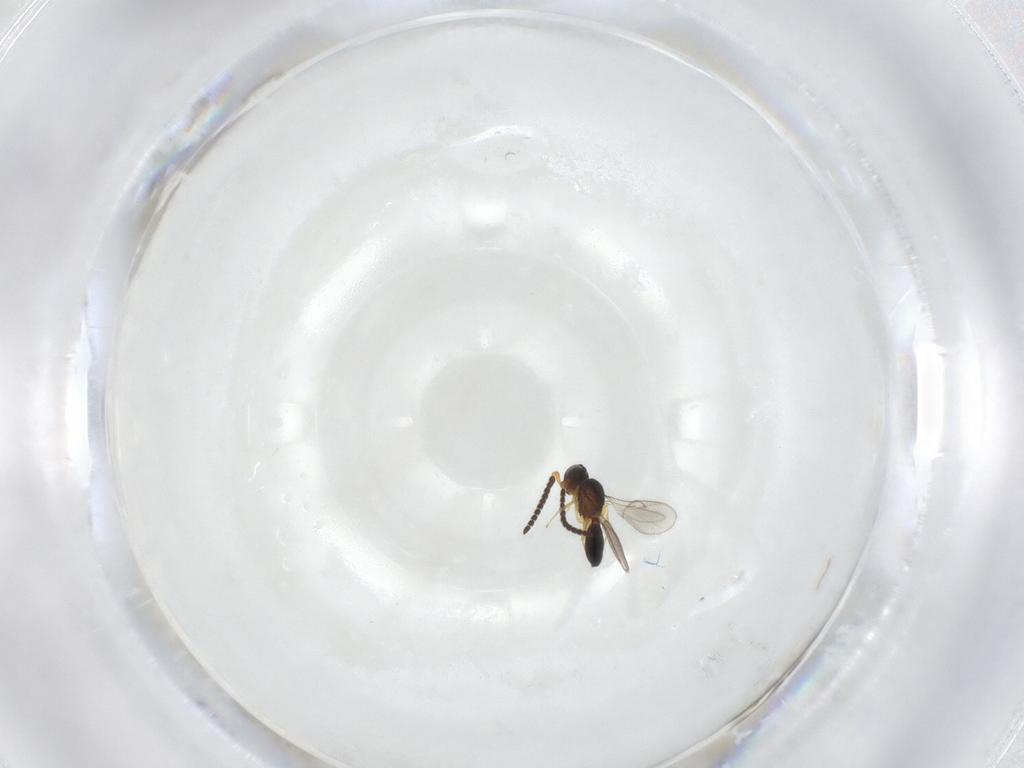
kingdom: Animalia
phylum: Arthropoda
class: Insecta
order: Hymenoptera
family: Scelionidae
